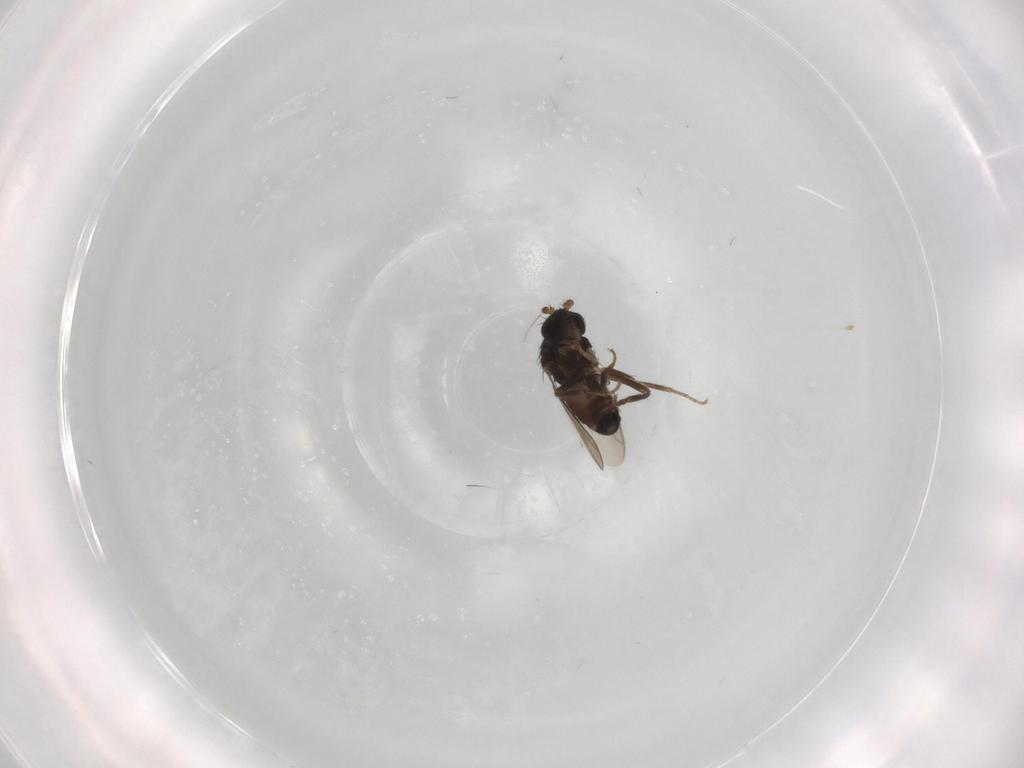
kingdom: Animalia
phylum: Arthropoda
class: Insecta
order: Diptera
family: Sphaeroceridae
